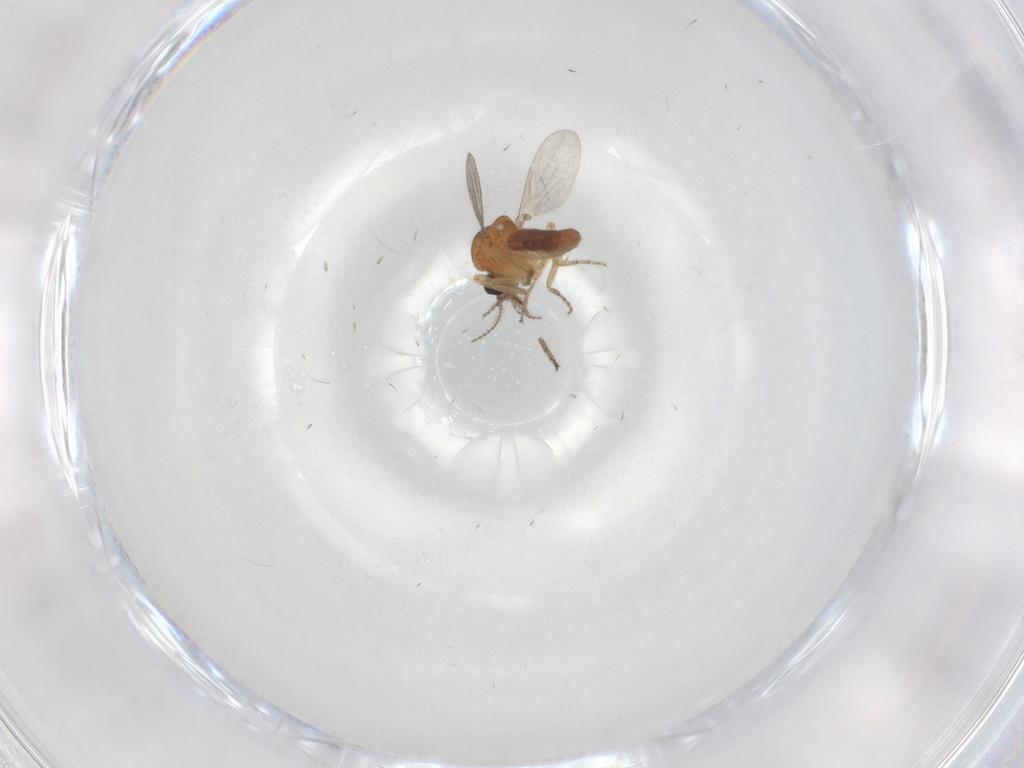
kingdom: Animalia
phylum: Arthropoda
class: Insecta
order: Diptera
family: Ceratopogonidae
